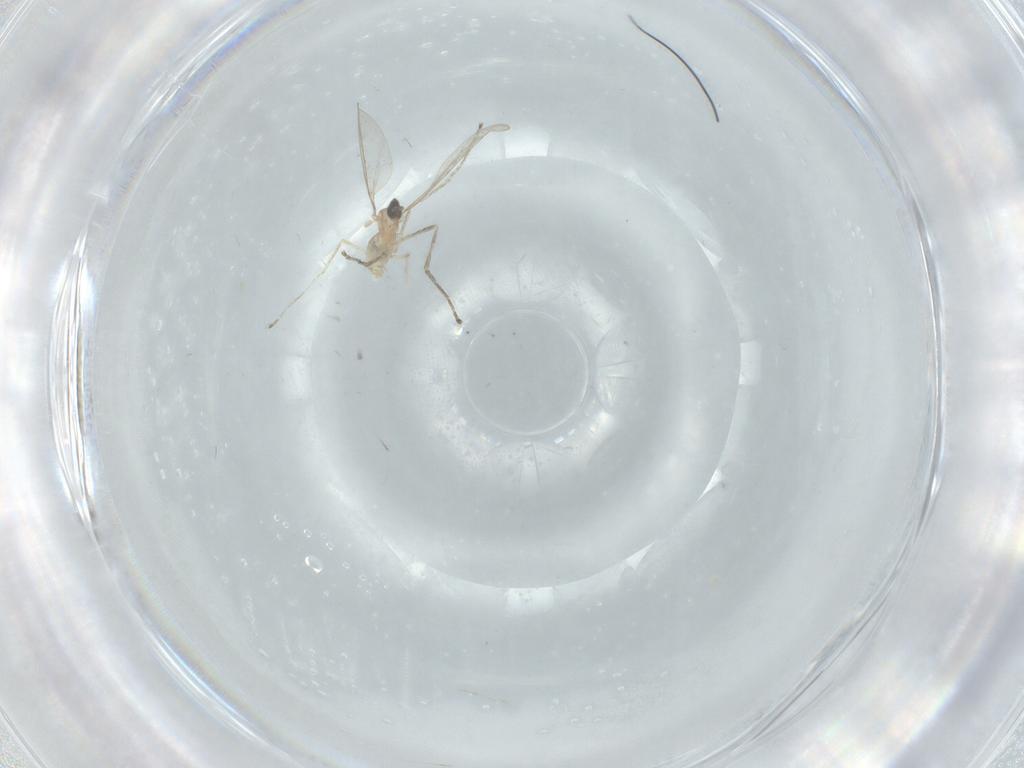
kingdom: Animalia
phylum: Arthropoda
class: Insecta
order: Diptera
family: Cecidomyiidae
